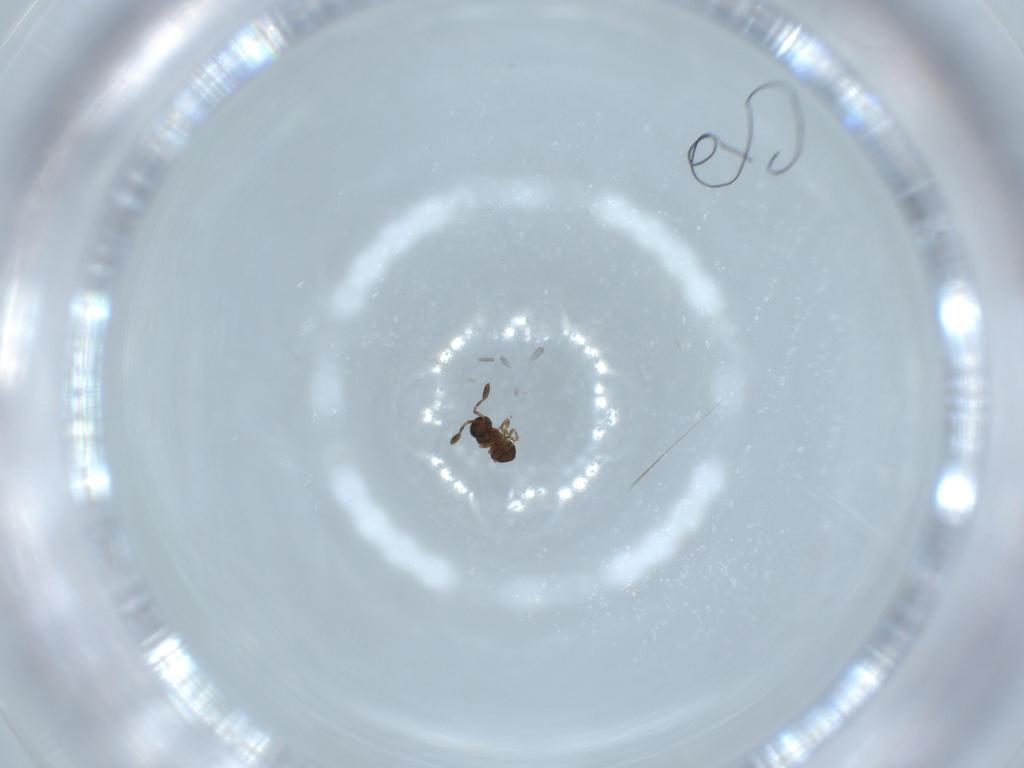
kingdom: Animalia
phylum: Arthropoda
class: Insecta
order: Hymenoptera
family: Scelionidae
